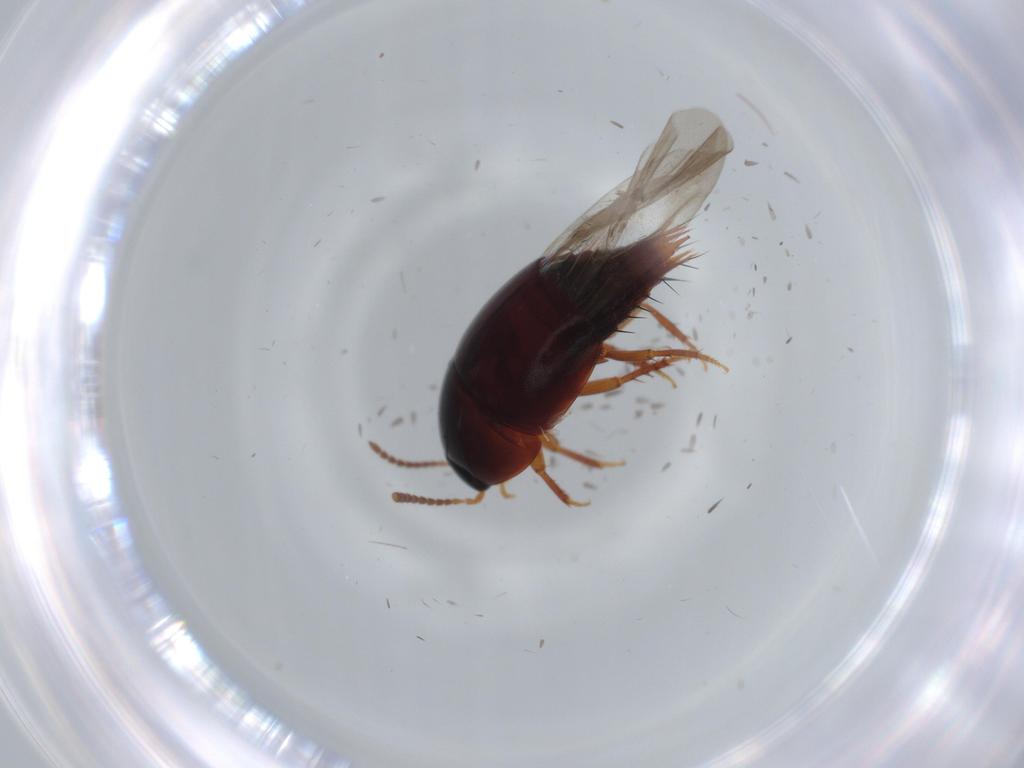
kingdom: Animalia
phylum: Arthropoda
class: Insecta
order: Coleoptera
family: Staphylinidae
